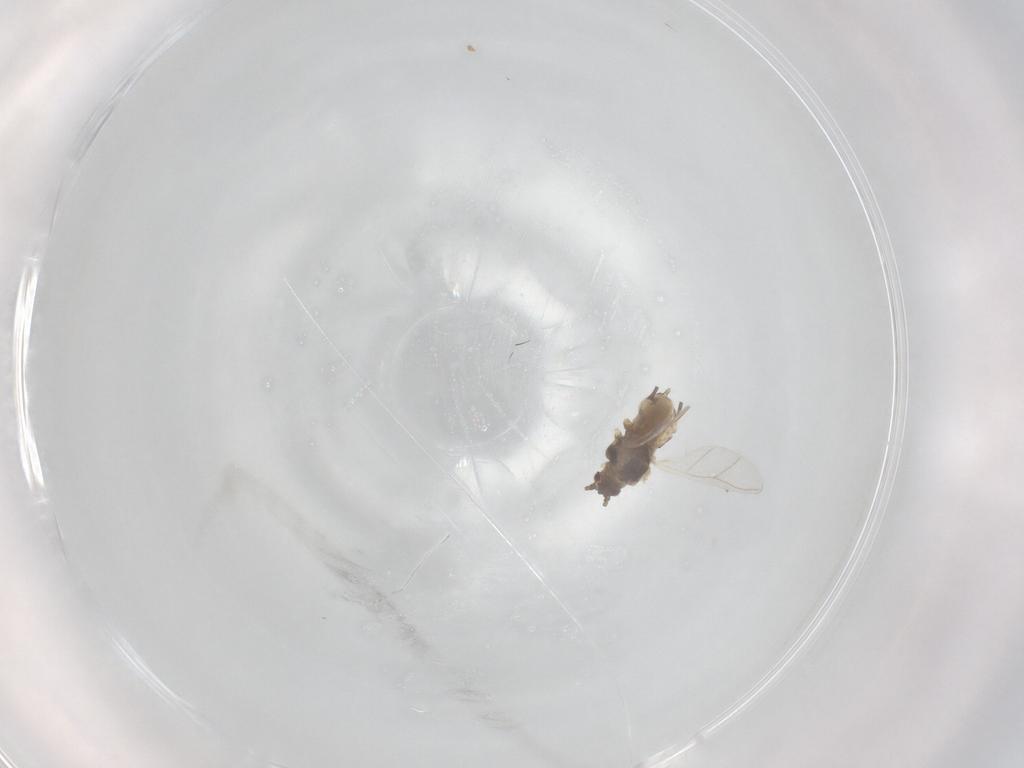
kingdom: Animalia
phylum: Arthropoda
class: Insecta
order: Hemiptera
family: Aphididae
